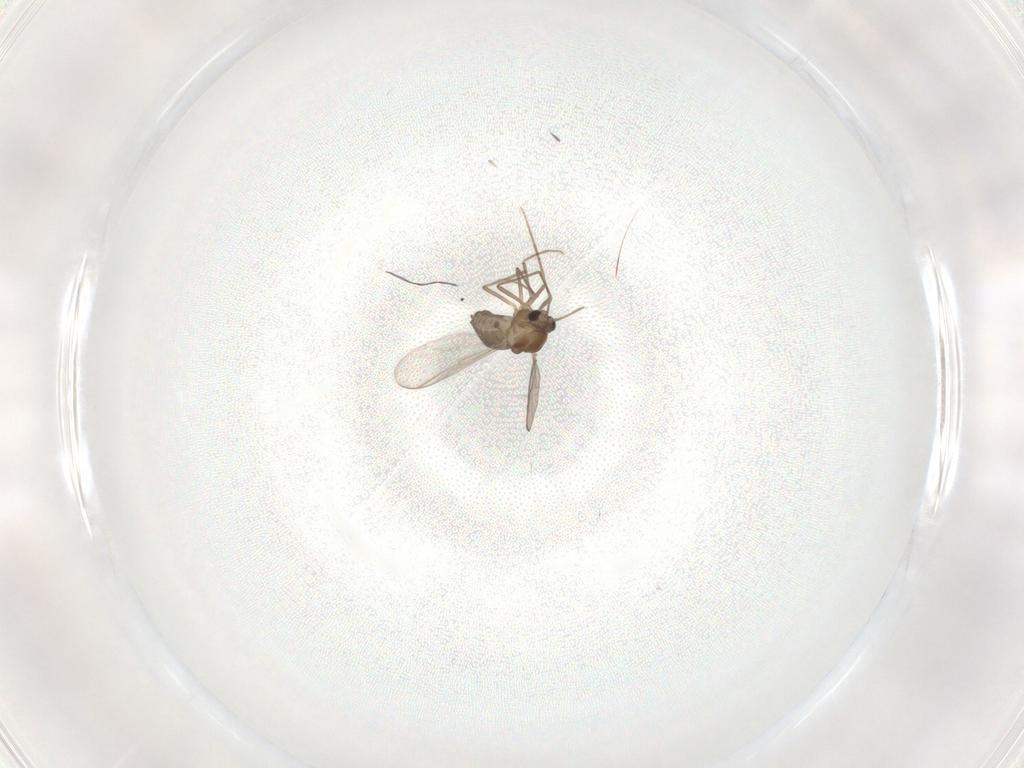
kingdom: Animalia
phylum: Arthropoda
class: Insecta
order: Diptera
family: Chironomidae
